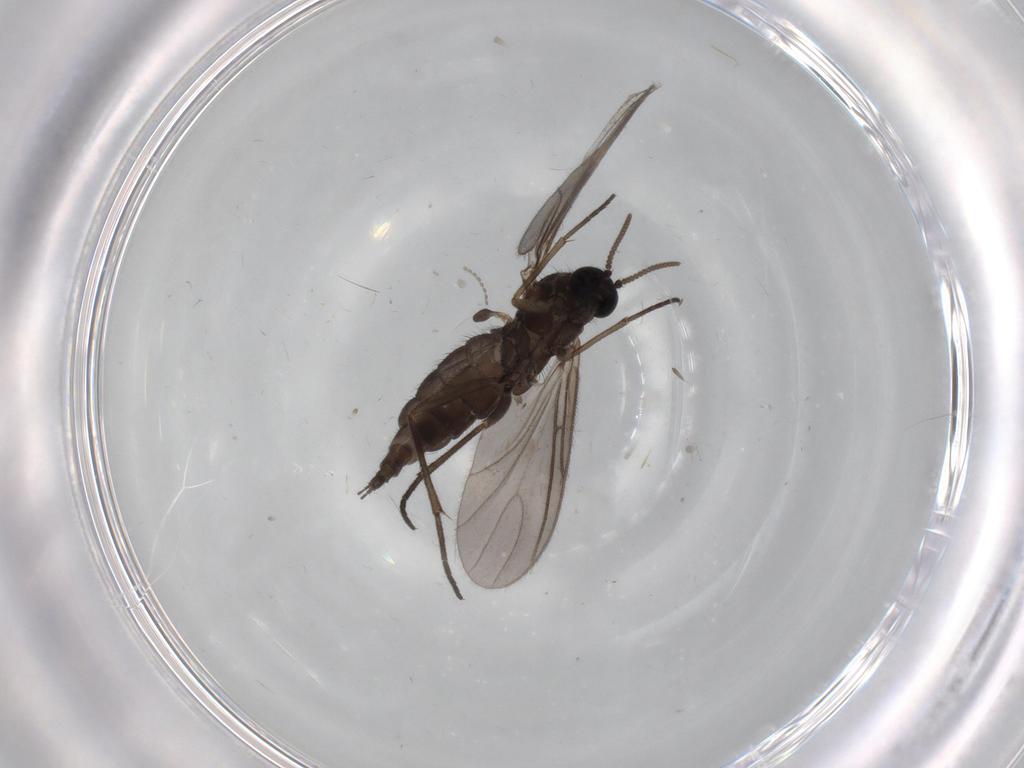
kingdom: Animalia
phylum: Arthropoda
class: Insecta
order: Diptera
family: Sciaridae
